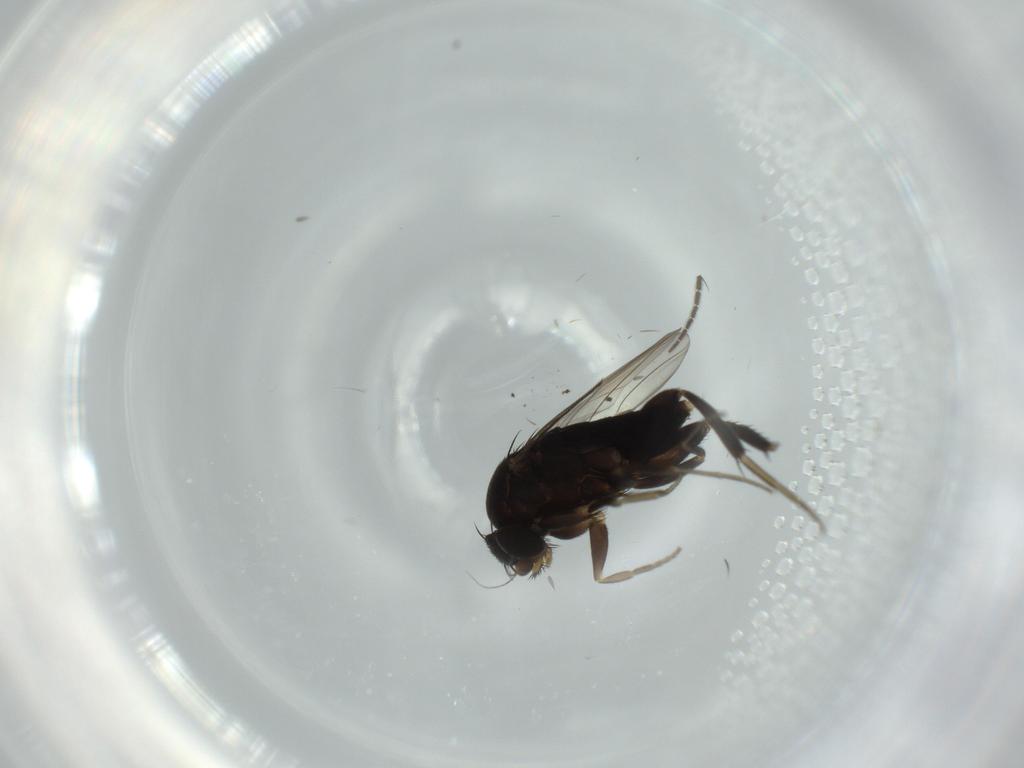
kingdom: Animalia
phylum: Arthropoda
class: Insecta
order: Diptera
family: Phoridae
